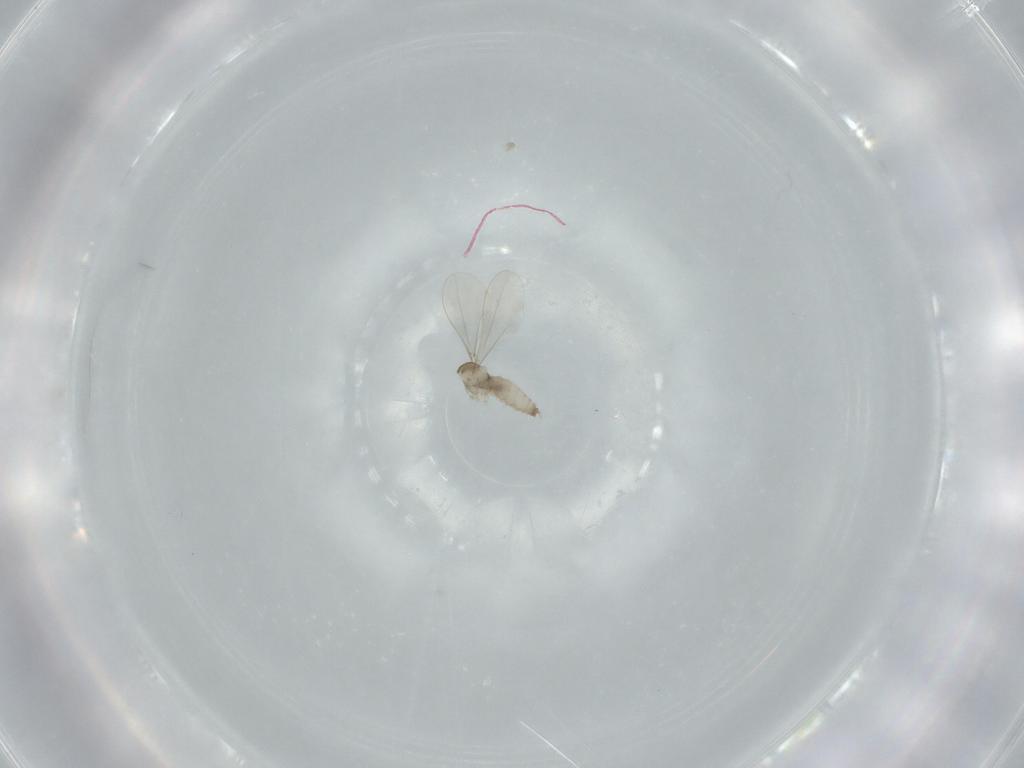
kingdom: Animalia
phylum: Arthropoda
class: Insecta
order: Diptera
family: Cecidomyiidae
